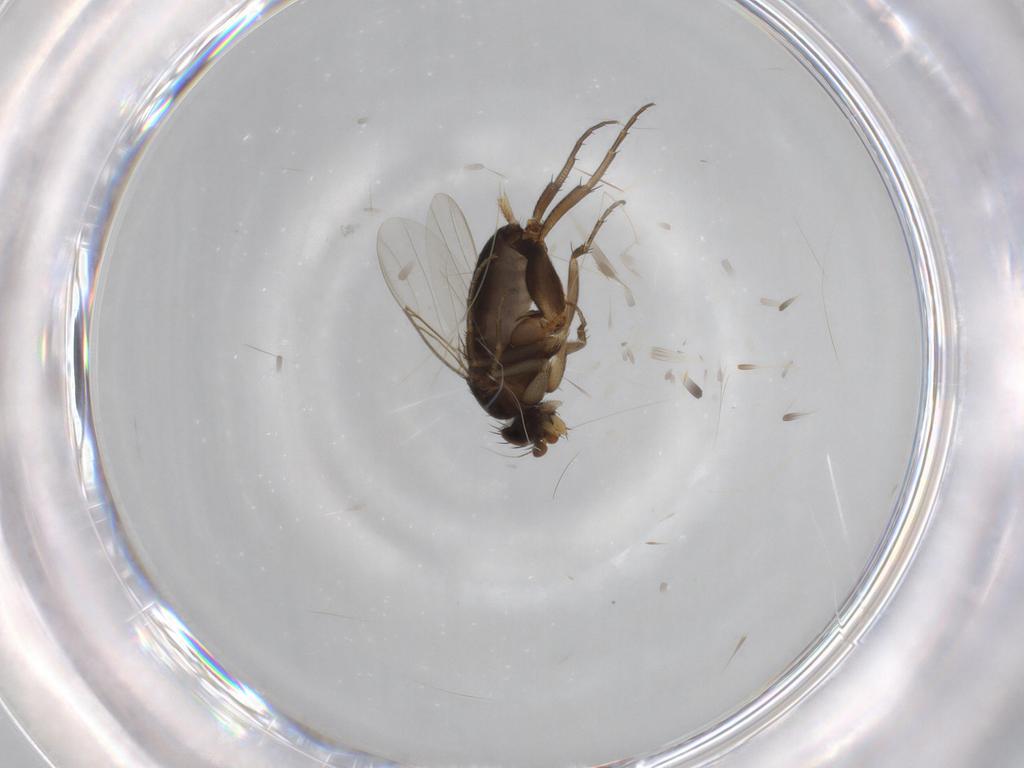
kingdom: Animalia
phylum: Arthropoda
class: Insecta
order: Diptera
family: Phoridae
